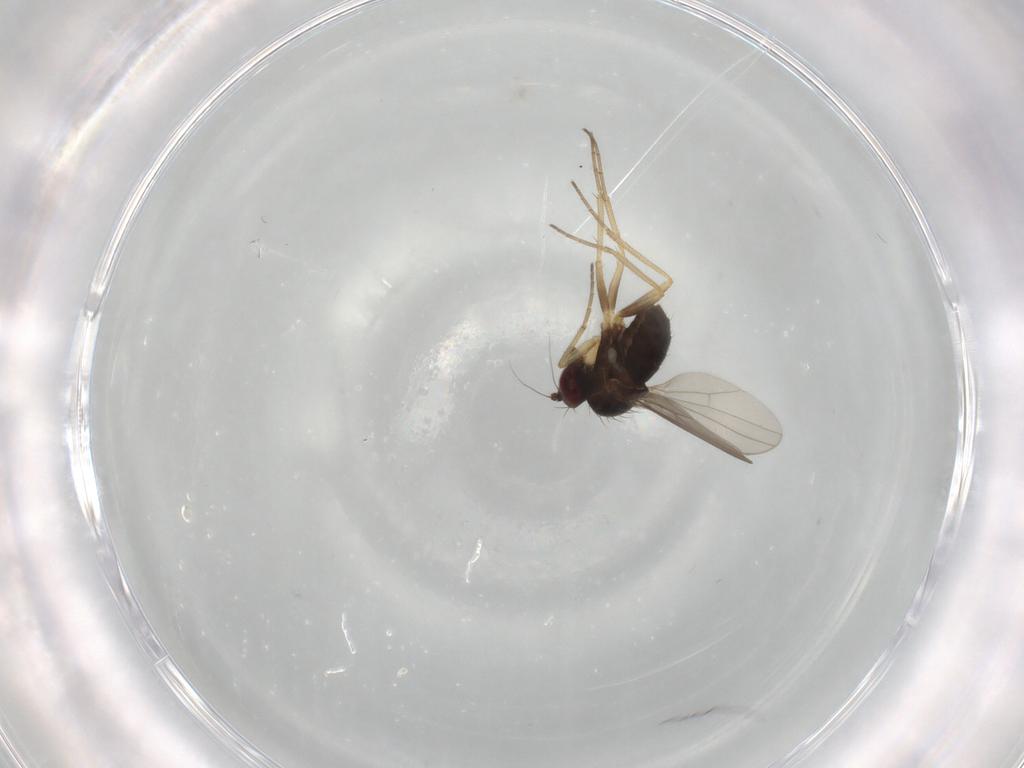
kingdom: Animalia
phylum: Arthropoda
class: Insecta
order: Diptera
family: Dolichopodidae
